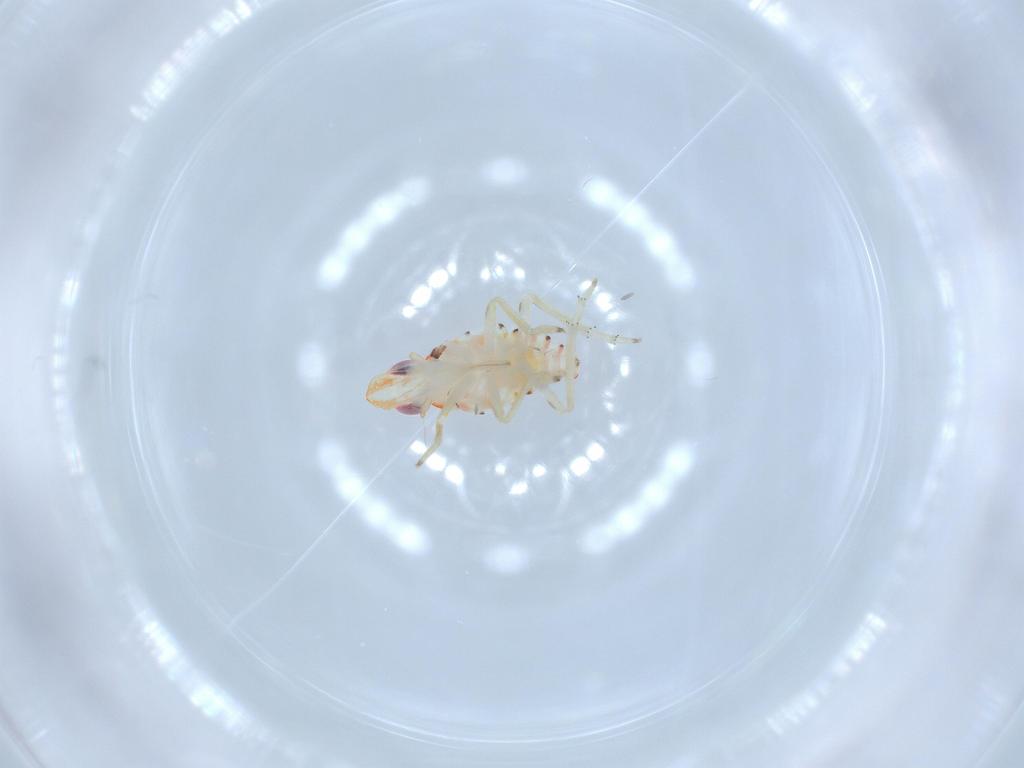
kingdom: Animalia
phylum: Arthropoda
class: Insecta
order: Hemiptera
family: Tropiduchidae
